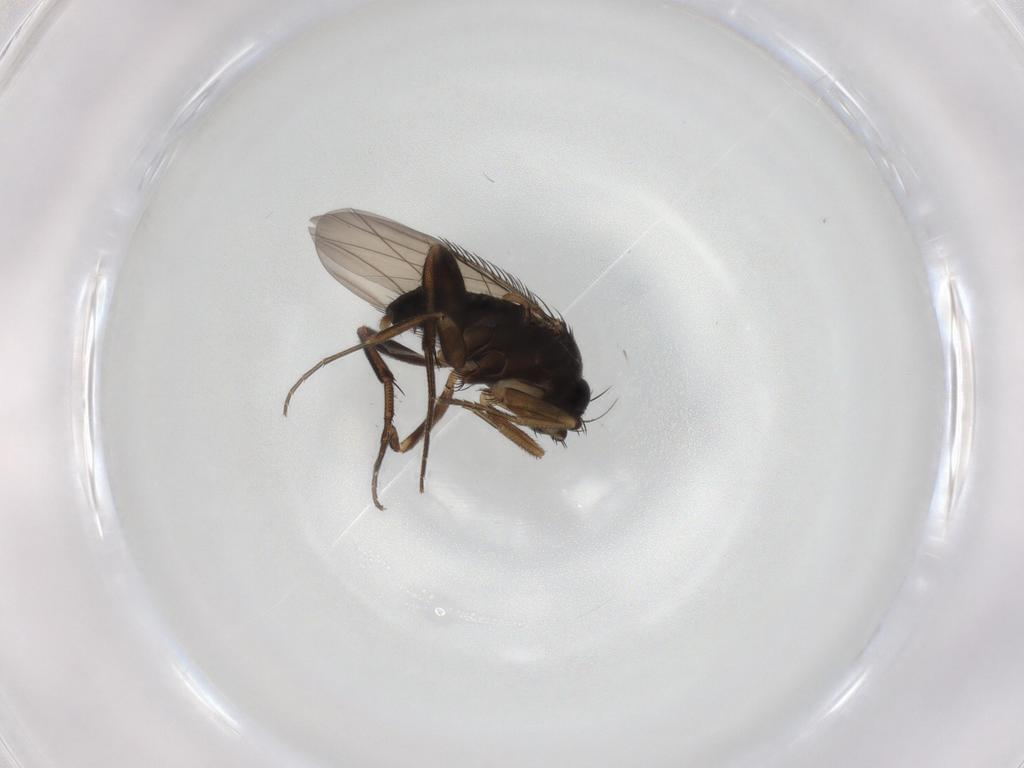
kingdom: Animalia
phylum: Arthropoda
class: Insecta
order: Diptera
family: Phoridae
